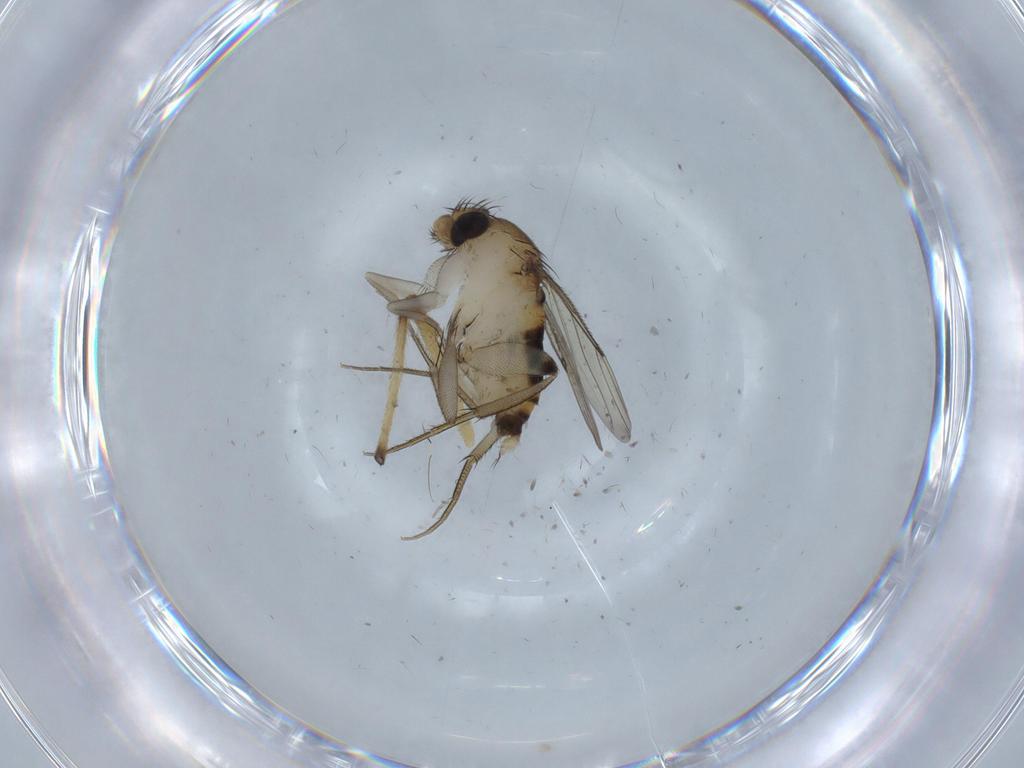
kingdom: Animalia
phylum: Arthropoda
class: Insecta
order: Diptera
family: Phoridae
